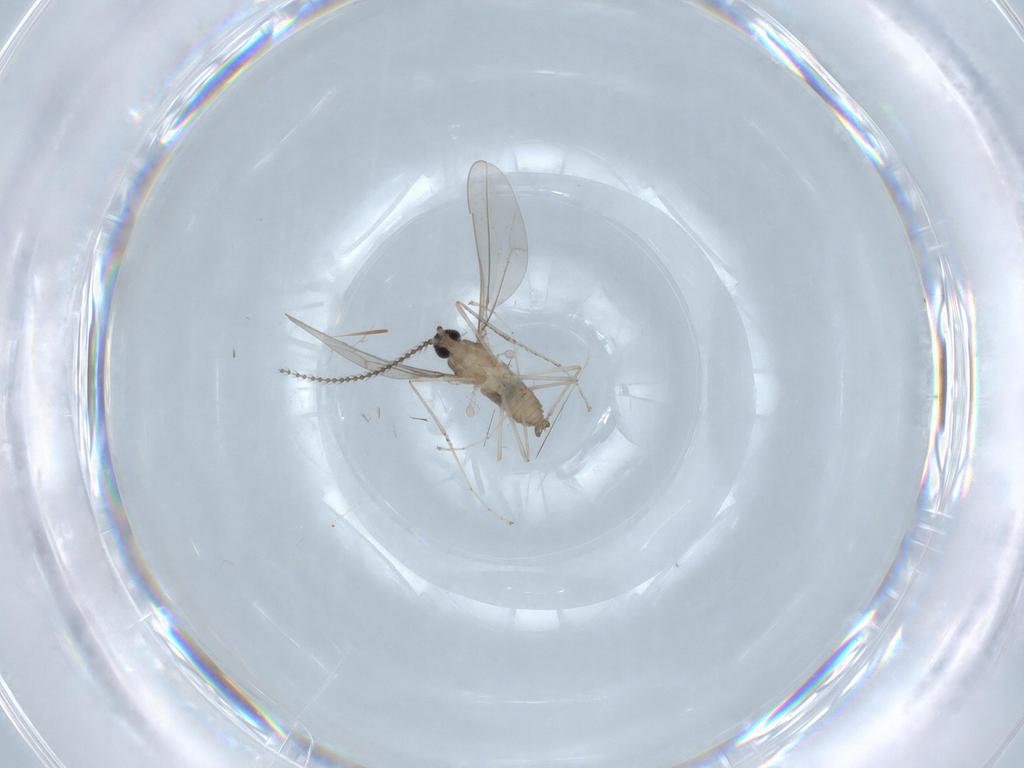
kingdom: Animalia
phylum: Arthropoda
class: Insecta
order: Diptera
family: Cecidomyiidae
